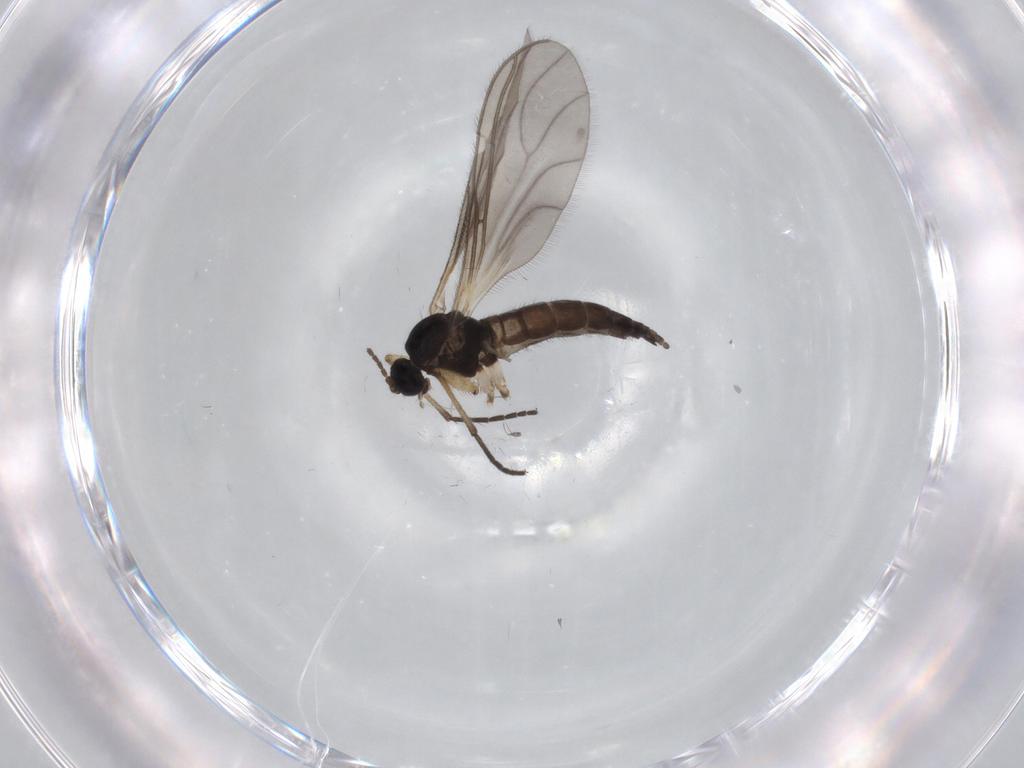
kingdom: Animalia
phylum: Arthropoda
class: Insecta
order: Diptera
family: Sciaridae
